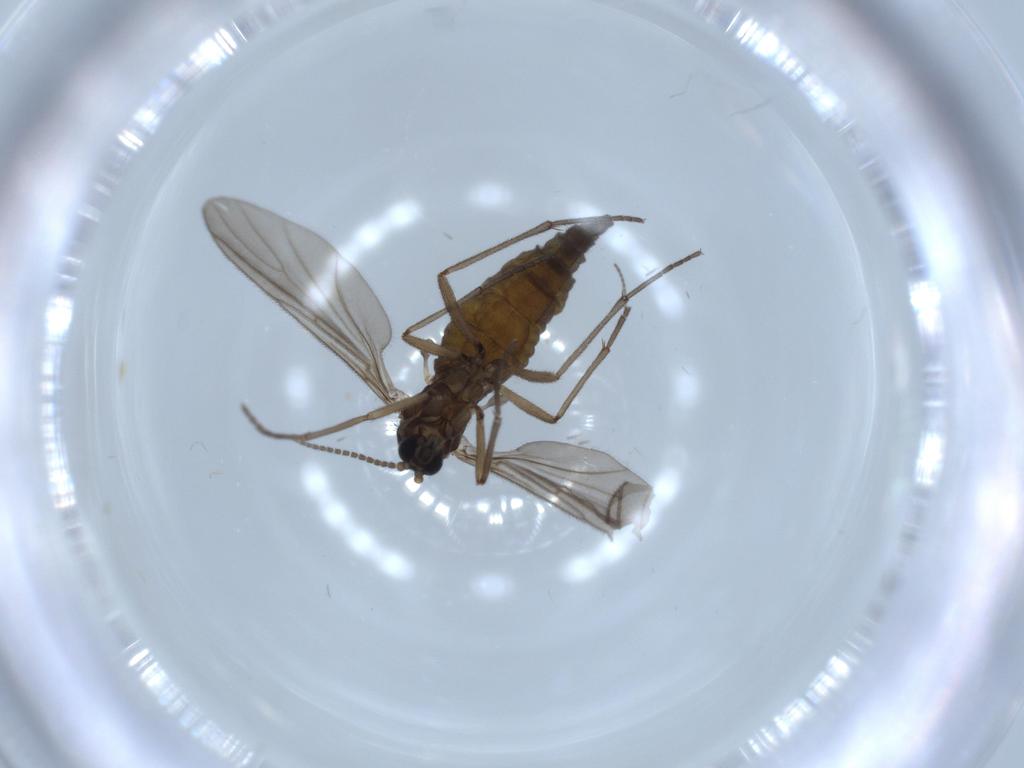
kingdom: Animalia
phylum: Arthropoda
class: Insecta
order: Diptera
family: Sciaridae
